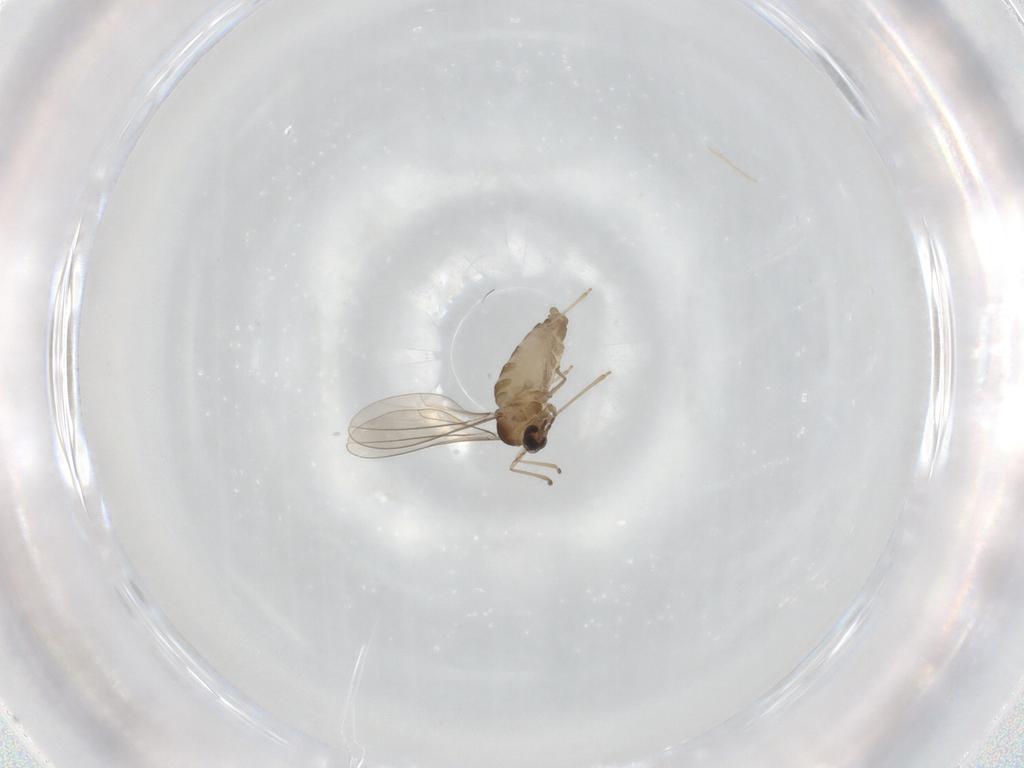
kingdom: Animalia
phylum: Arthropoda
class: Insecta
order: Diptera
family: Cecidomyiidae
